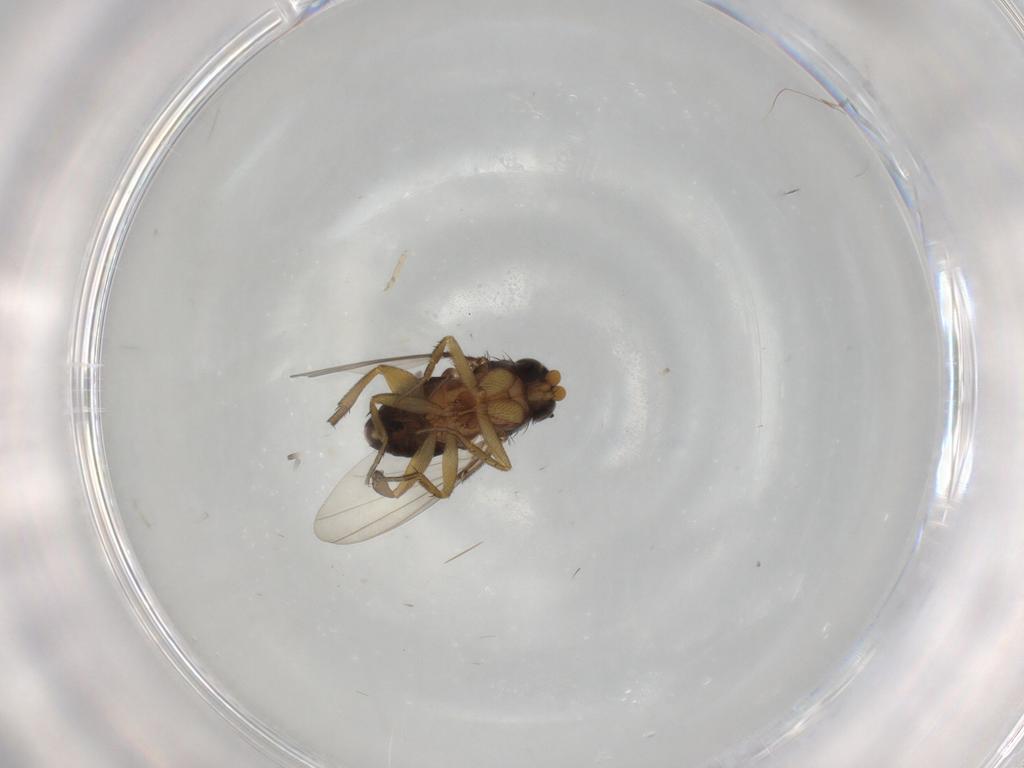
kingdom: Animalia
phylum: Arthropoda
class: Insecta
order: Diptera
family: Phoridae
